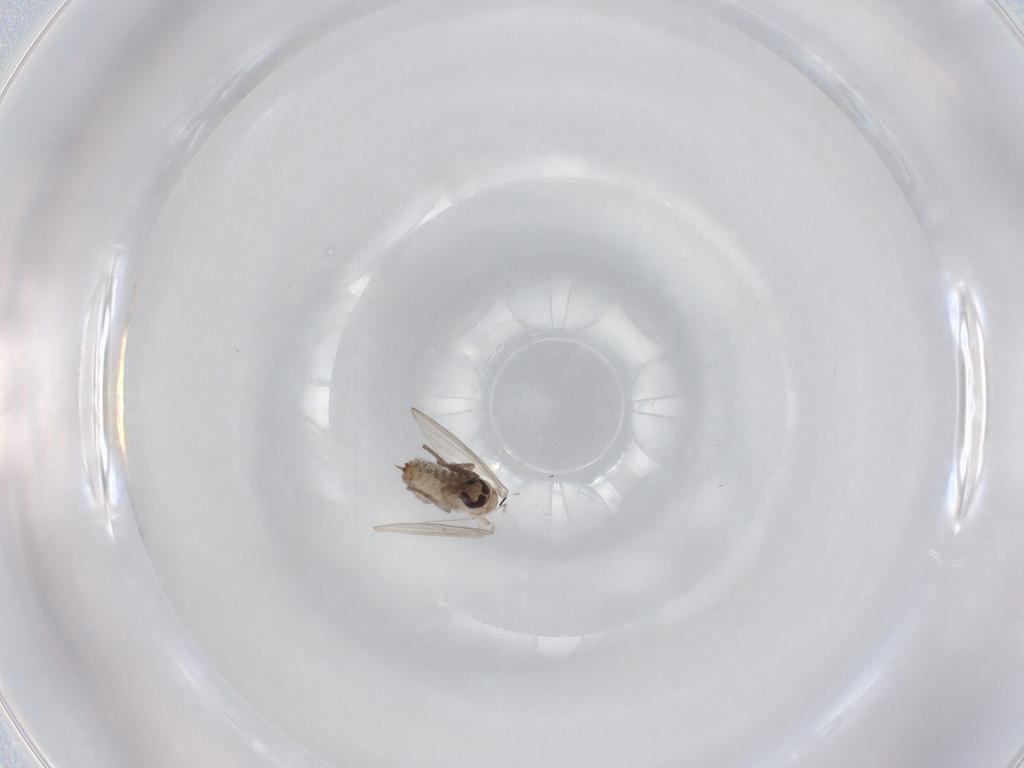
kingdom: Animalia
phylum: Arthropoda
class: Insecta
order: Diptera
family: Psychodidae
